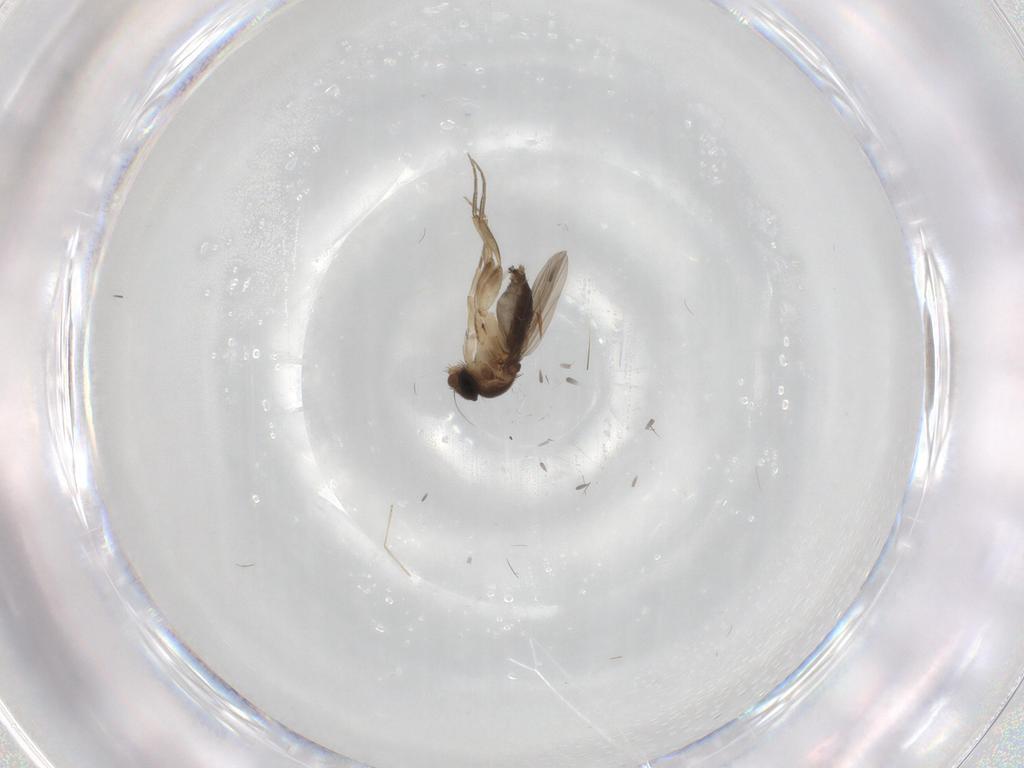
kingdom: Animalia
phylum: Arthropoda
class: Insecta
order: Diptera
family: Phoridae
